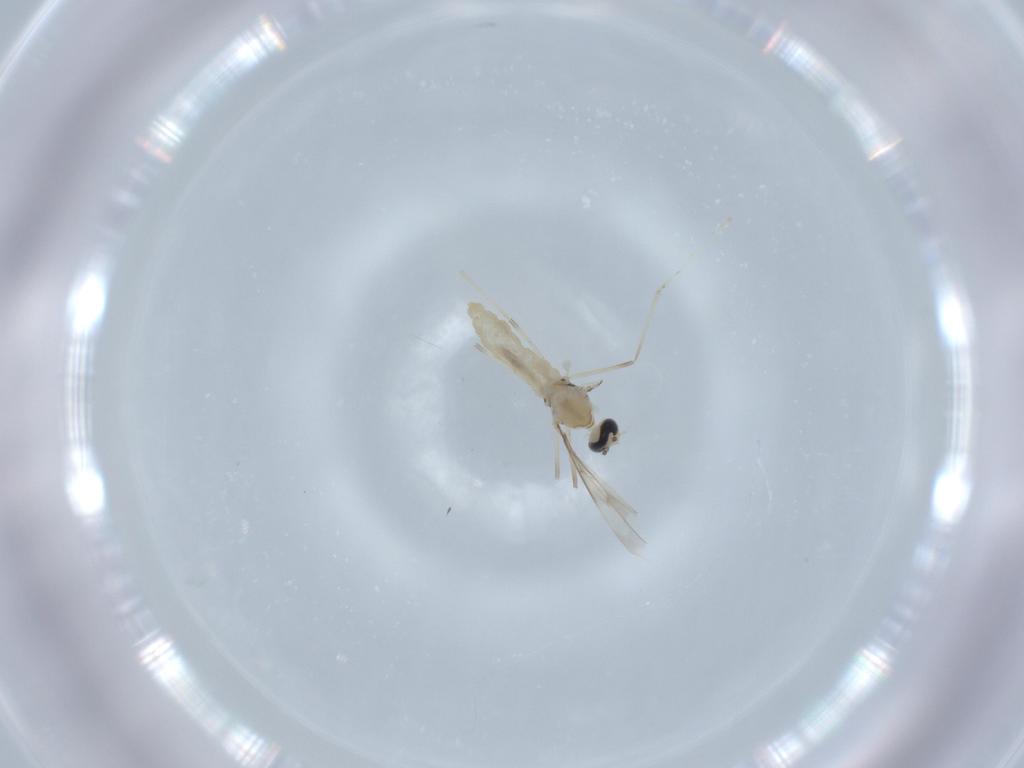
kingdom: Animalia
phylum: Arthropoda
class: Insecta
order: Diptera
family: Cecidomyiidae
